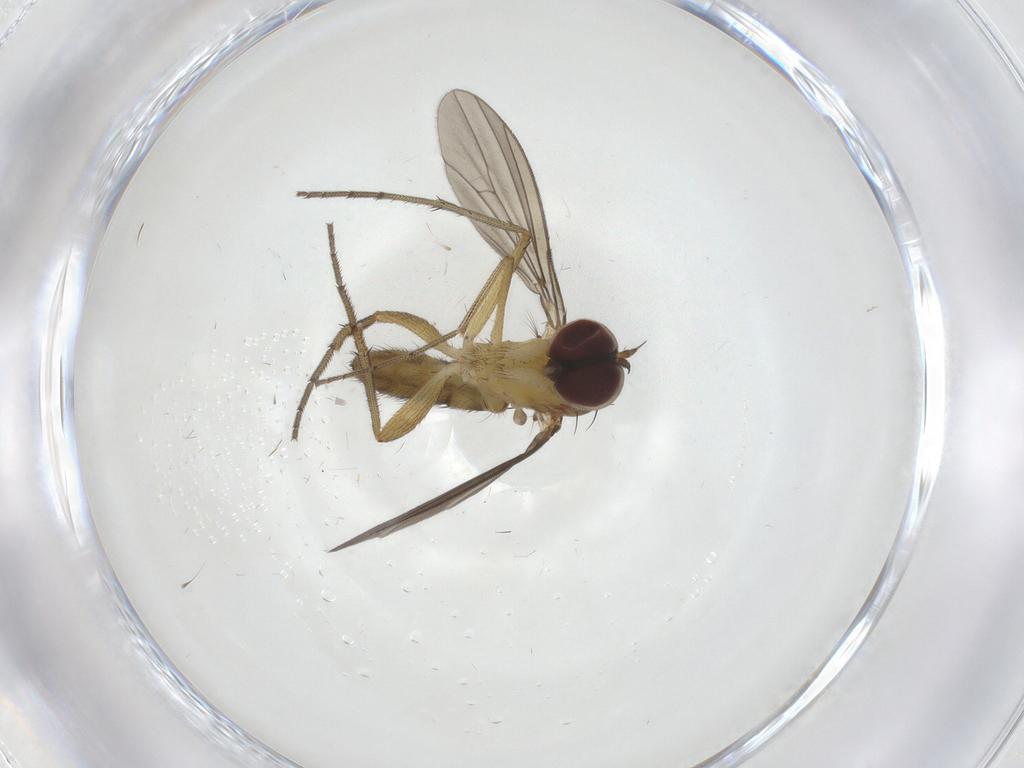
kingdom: Animalia
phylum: Arthropoda
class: Insecta
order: Diptera
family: Dolichopodidae
